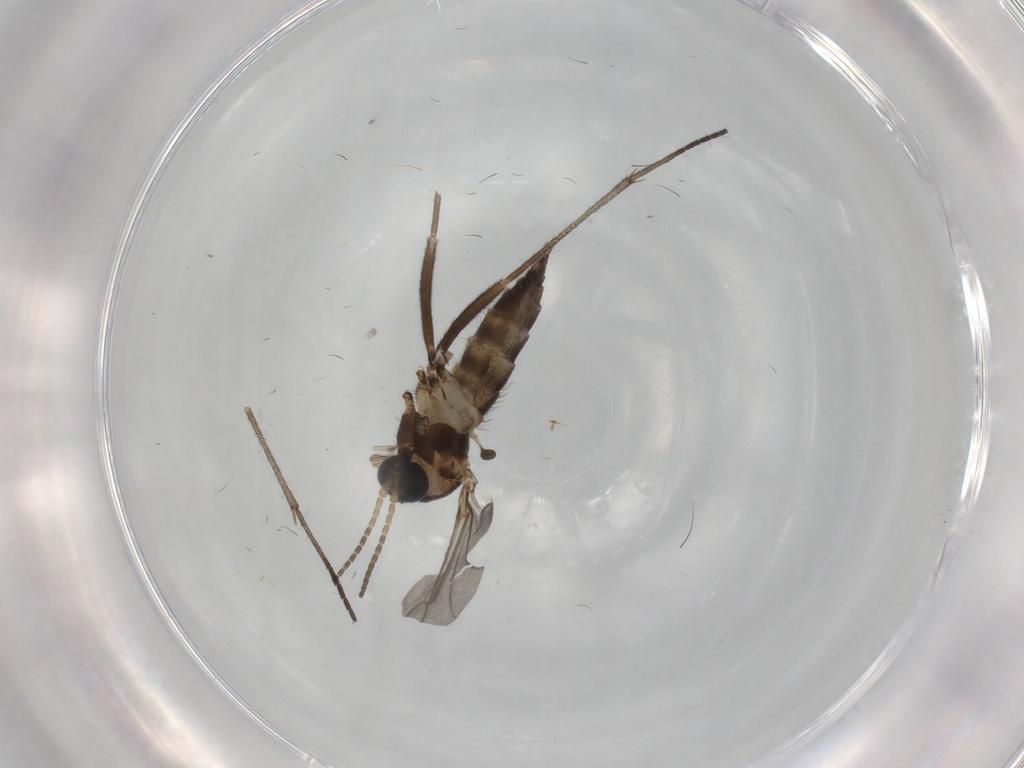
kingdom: Animalia
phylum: Arthropoda
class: Insecta
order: Diptera
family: Sciaridae
